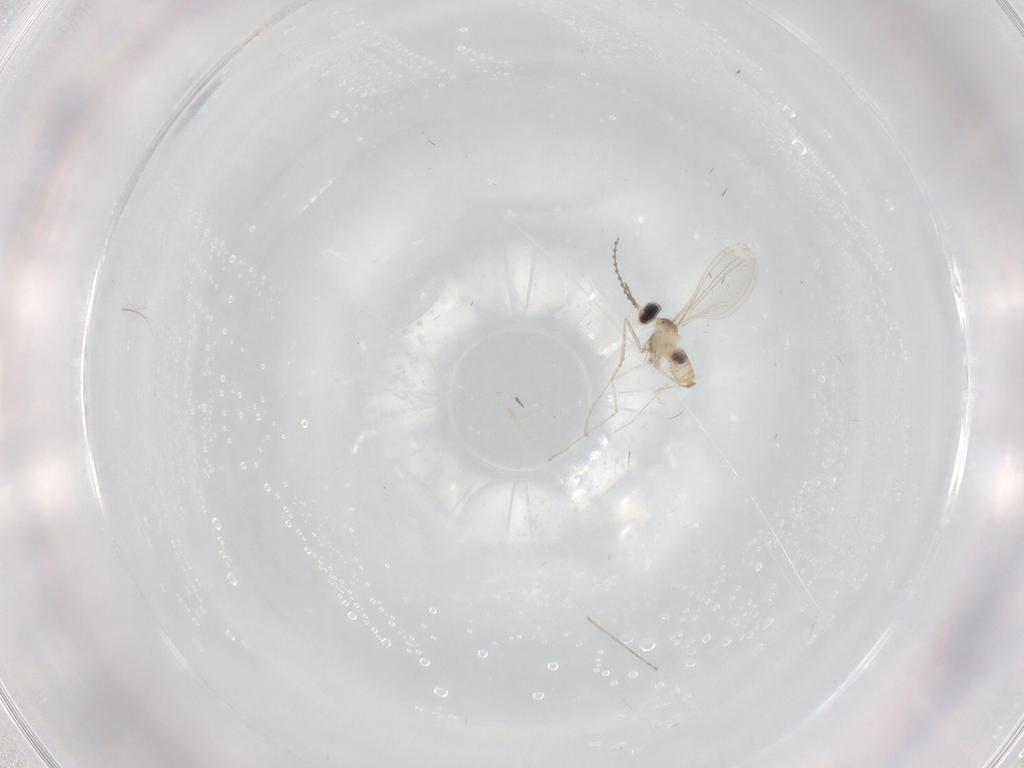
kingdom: Animalia
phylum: Arthropoda
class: Insecta
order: Diptera
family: Cecidomyiidae
